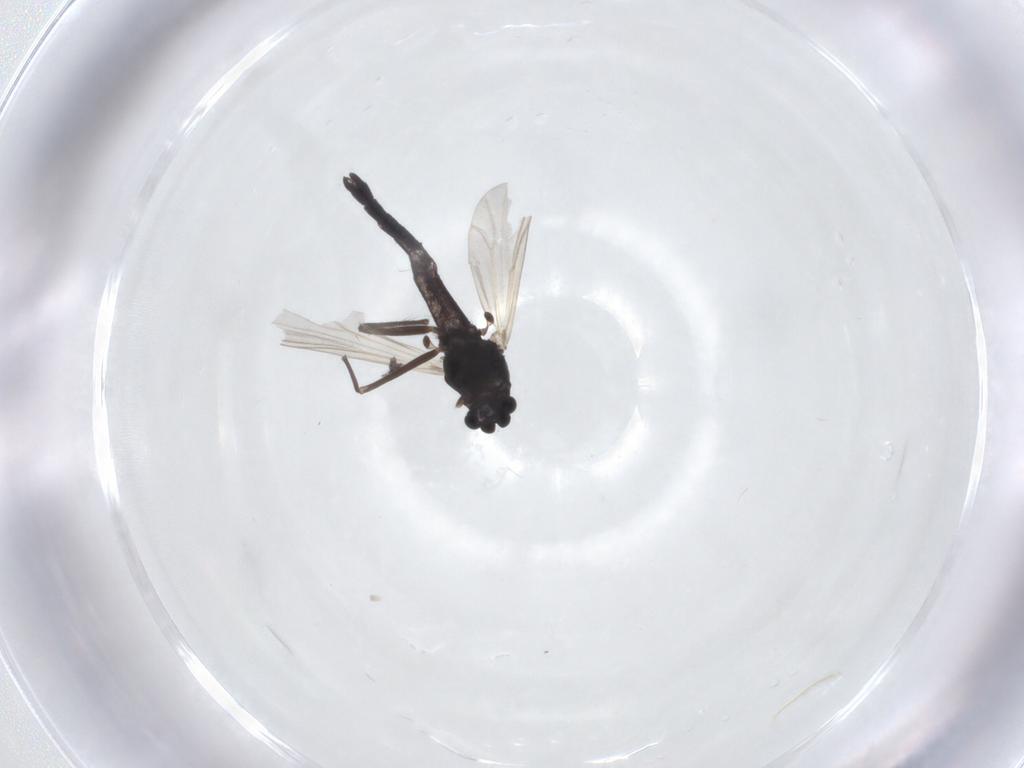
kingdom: Animalia
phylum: Arthropoda
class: Insecta
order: Diptera
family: Chironomidae
